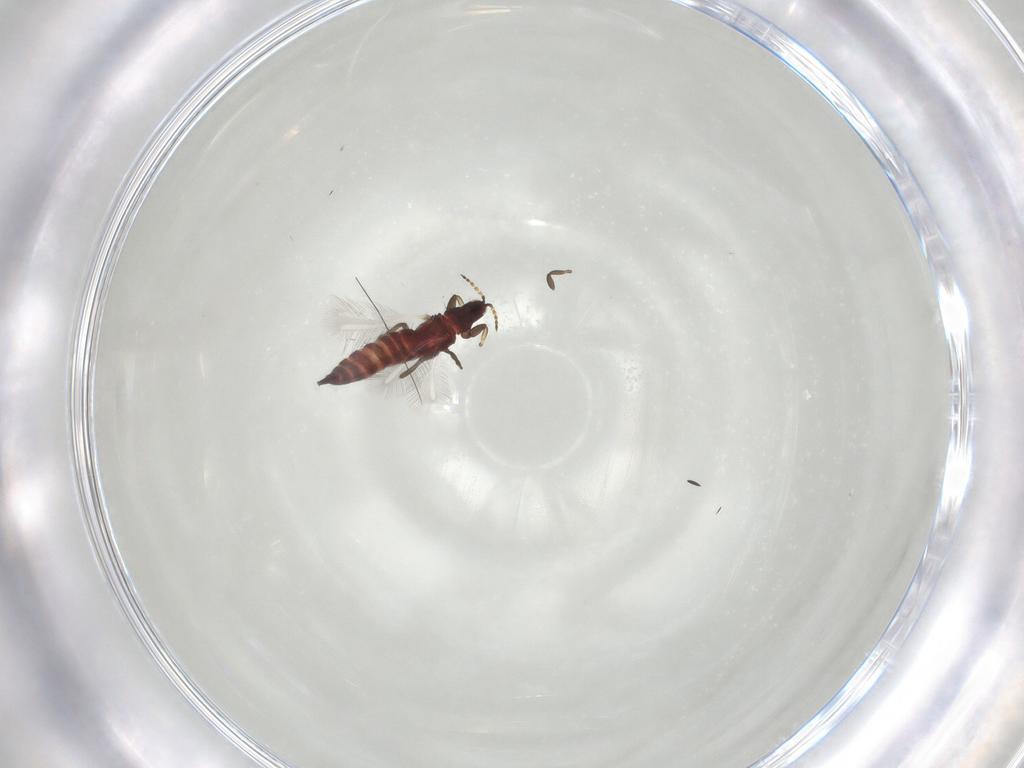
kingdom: Animalia
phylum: Arthropoda
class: Insecta
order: Thysanoptera
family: Phlaeothripidae
